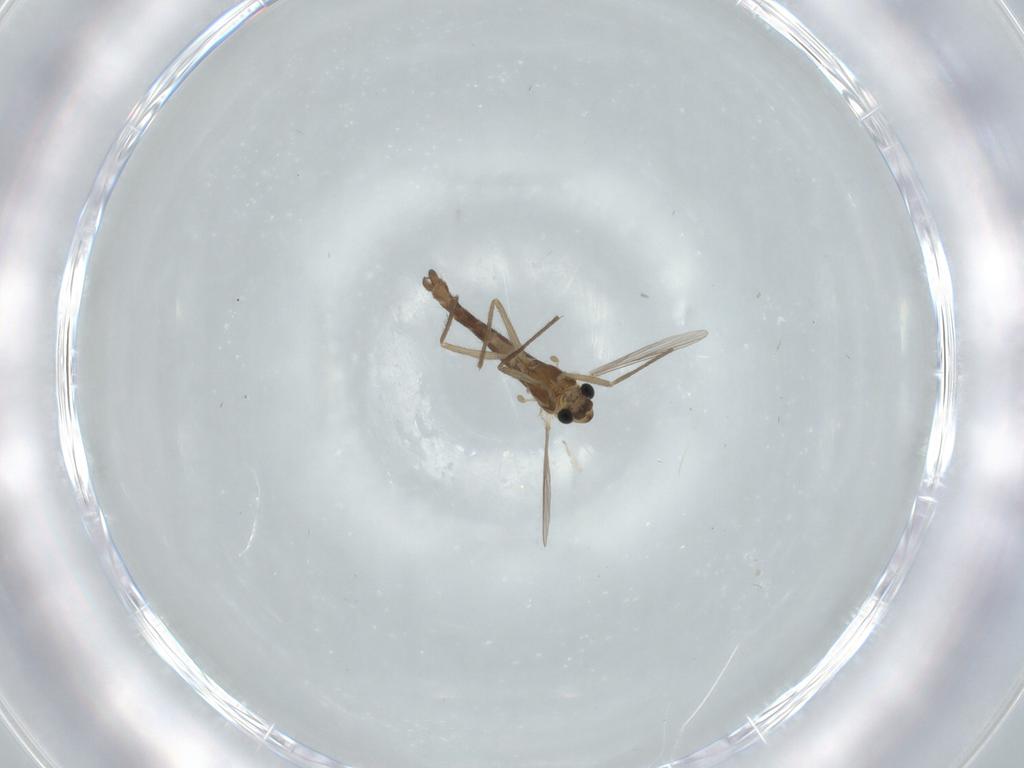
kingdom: Animalia
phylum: Arthropoda
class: Insecta
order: Diptera
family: Chironomidae
